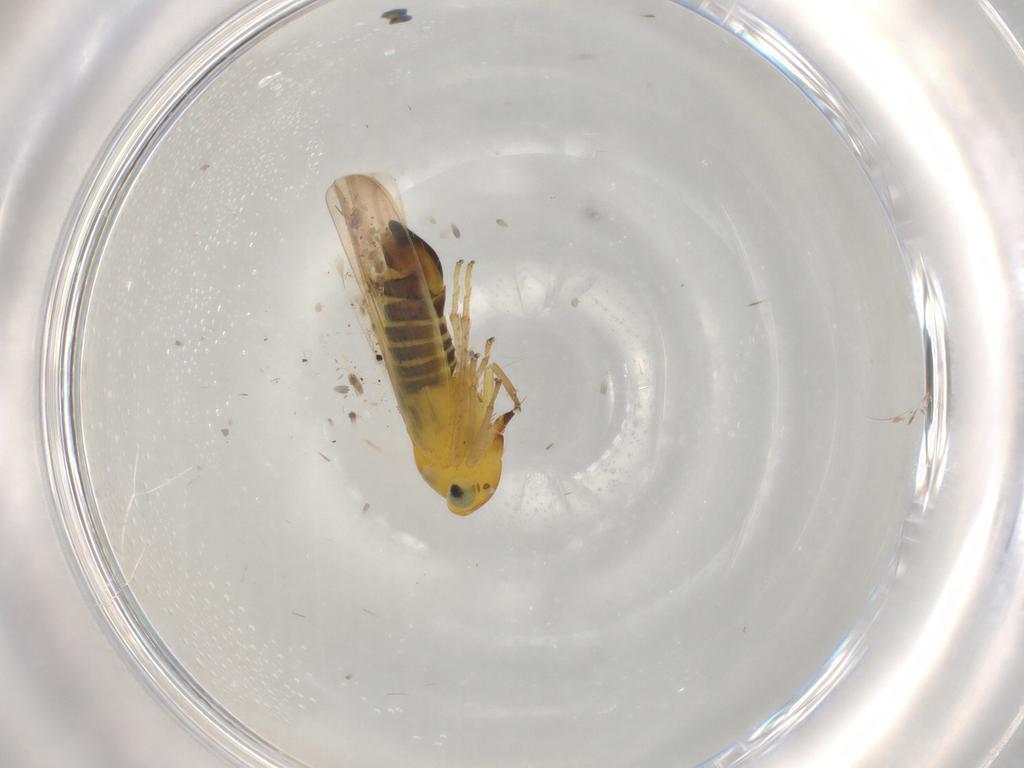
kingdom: Animalia
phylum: Arthropoda
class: Insecta
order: Hemiptera
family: Cicadellidae
